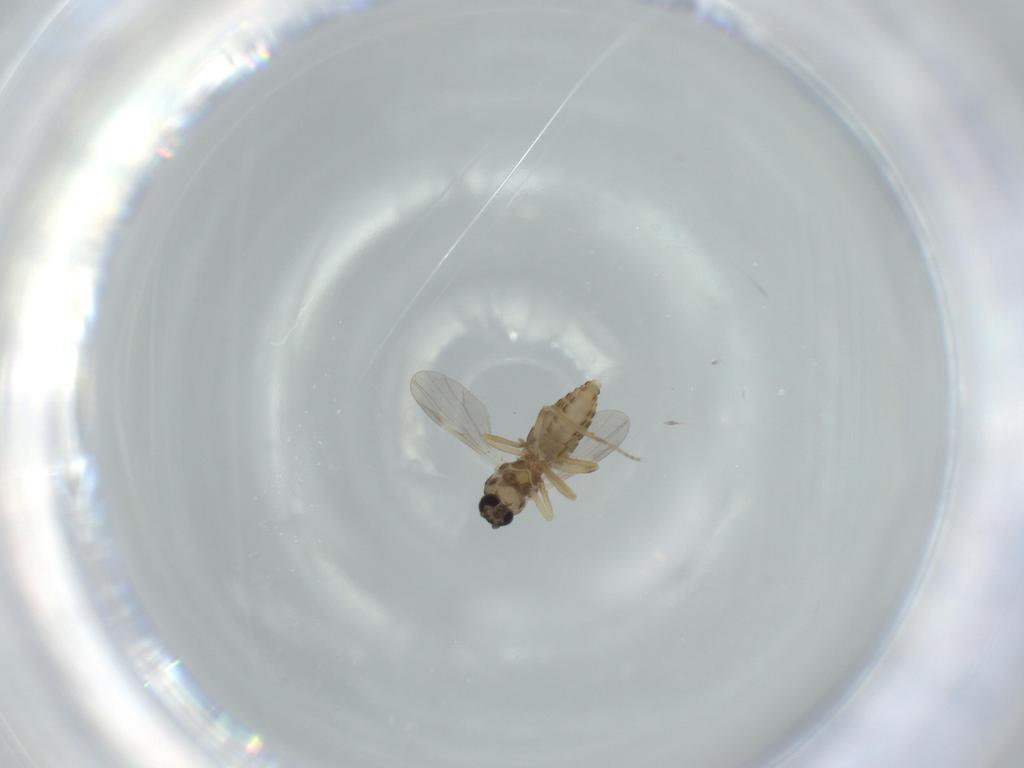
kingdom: Animalia
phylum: Arthropoda
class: Insecta
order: Diptera
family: Ceratopogonidae
